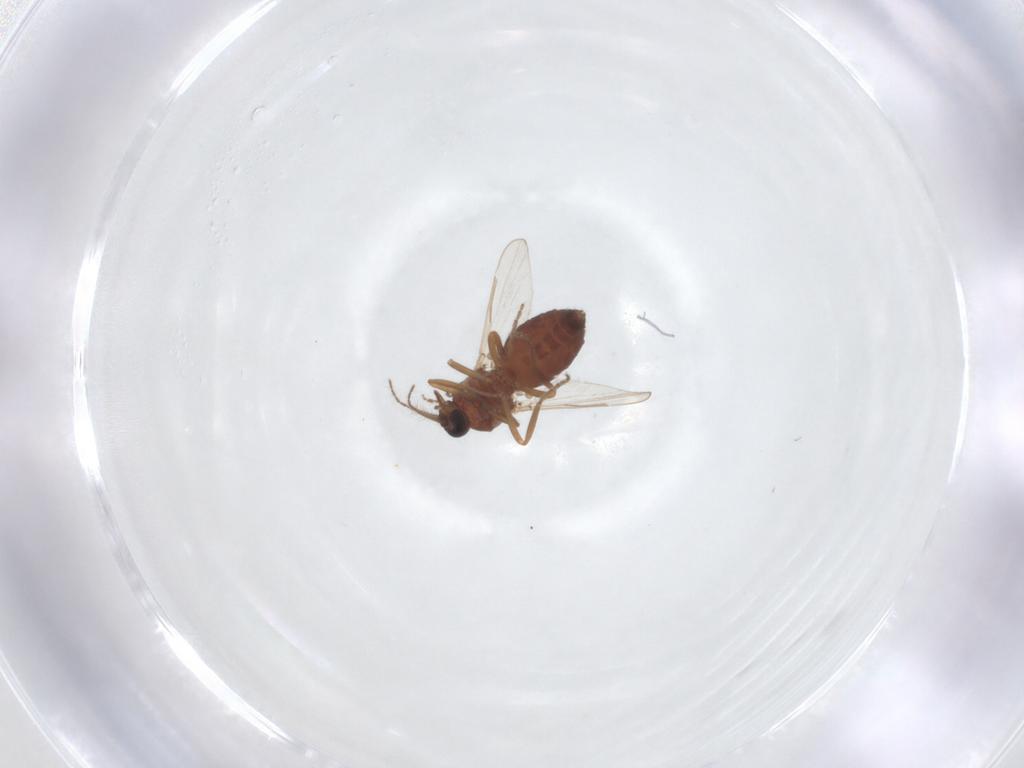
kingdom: Animalia
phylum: Arthropoda
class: Insecta
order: Diptera
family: Ceratopogonidae
